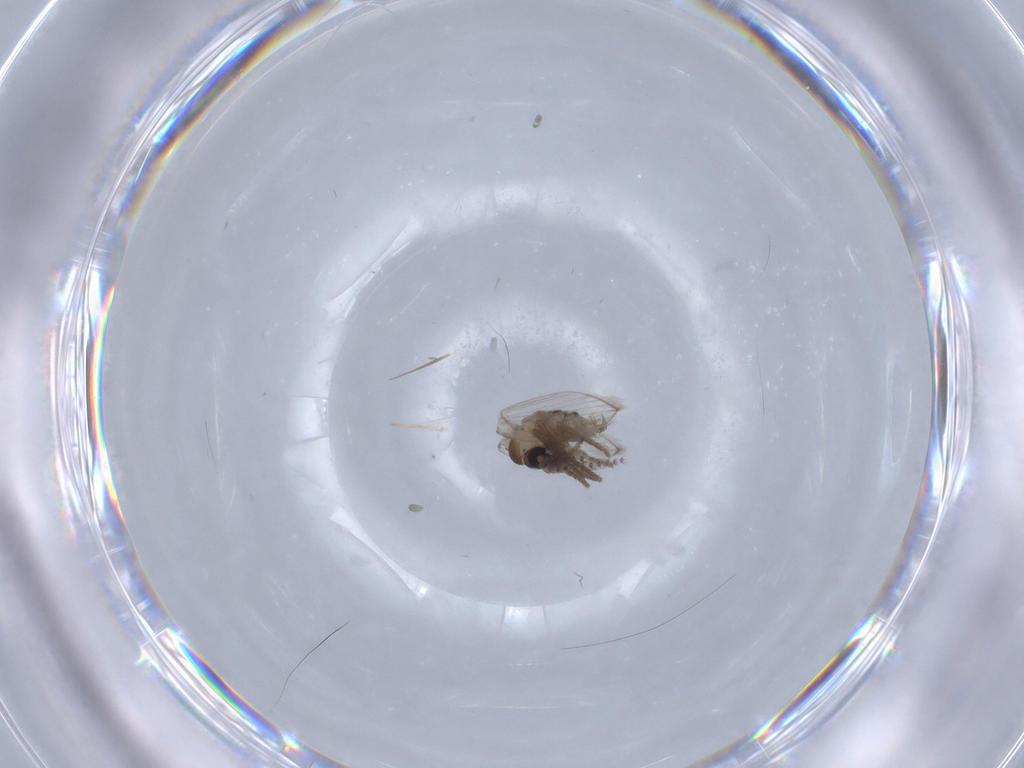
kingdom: Animalia
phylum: Arthropoda
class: Insecta
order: Diptera
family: Psychodidae
